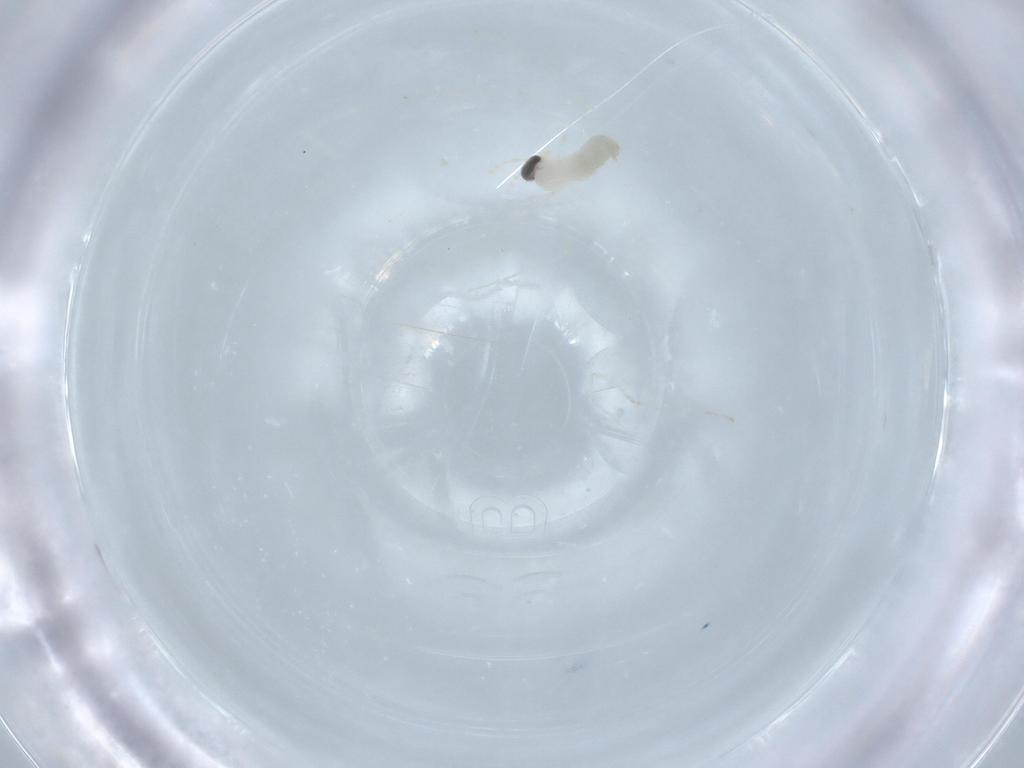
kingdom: Animalia
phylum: Arthropoda
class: Insecta
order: Diptera
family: Cecidomyiidae
